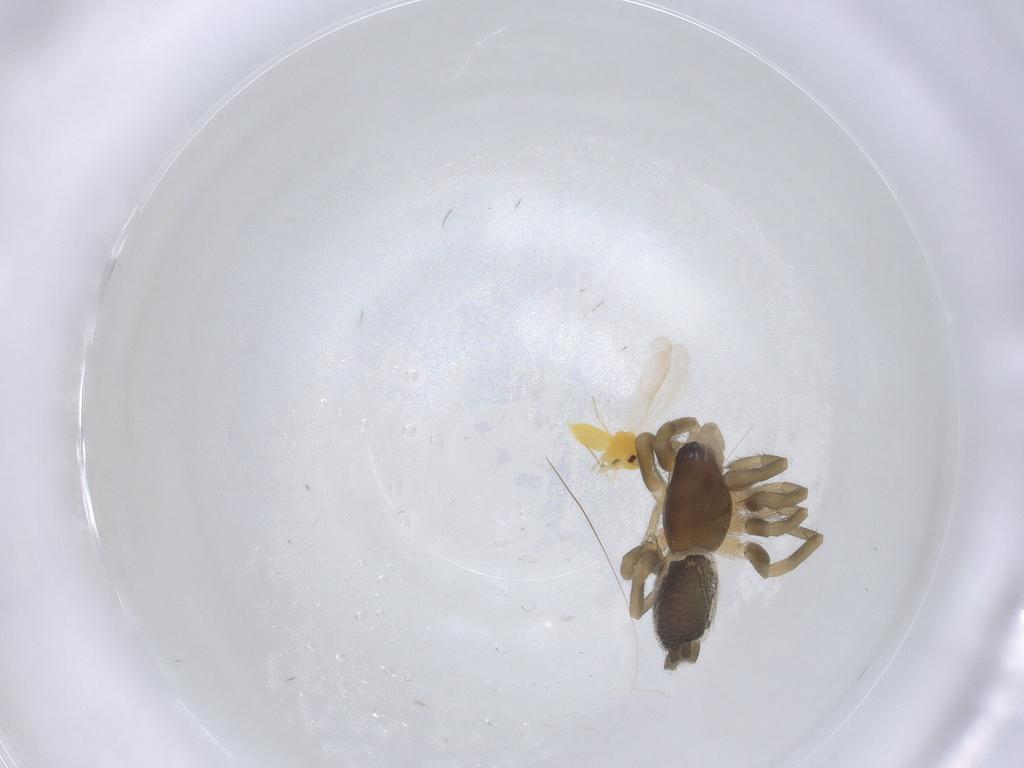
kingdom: Animalia
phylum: Arthropoda
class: Arachnida
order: Araneae
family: Gnaphosidae
